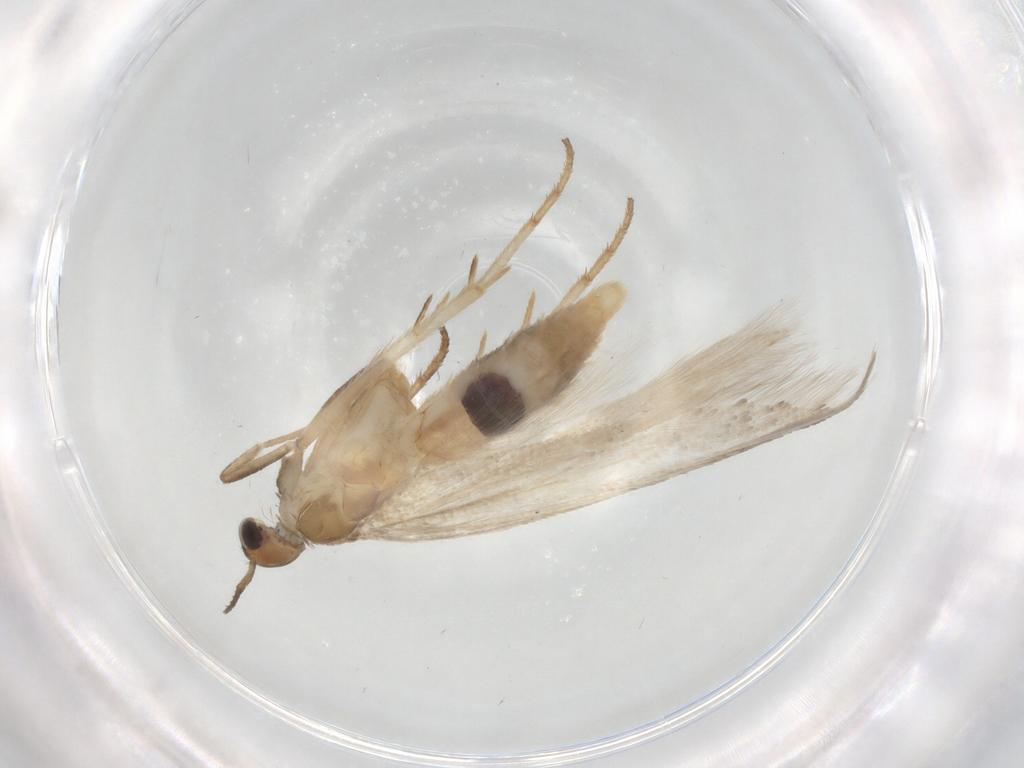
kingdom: Animalia
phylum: Arthropoda
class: Insecta
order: Lepidoptera
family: Gelechiidae
